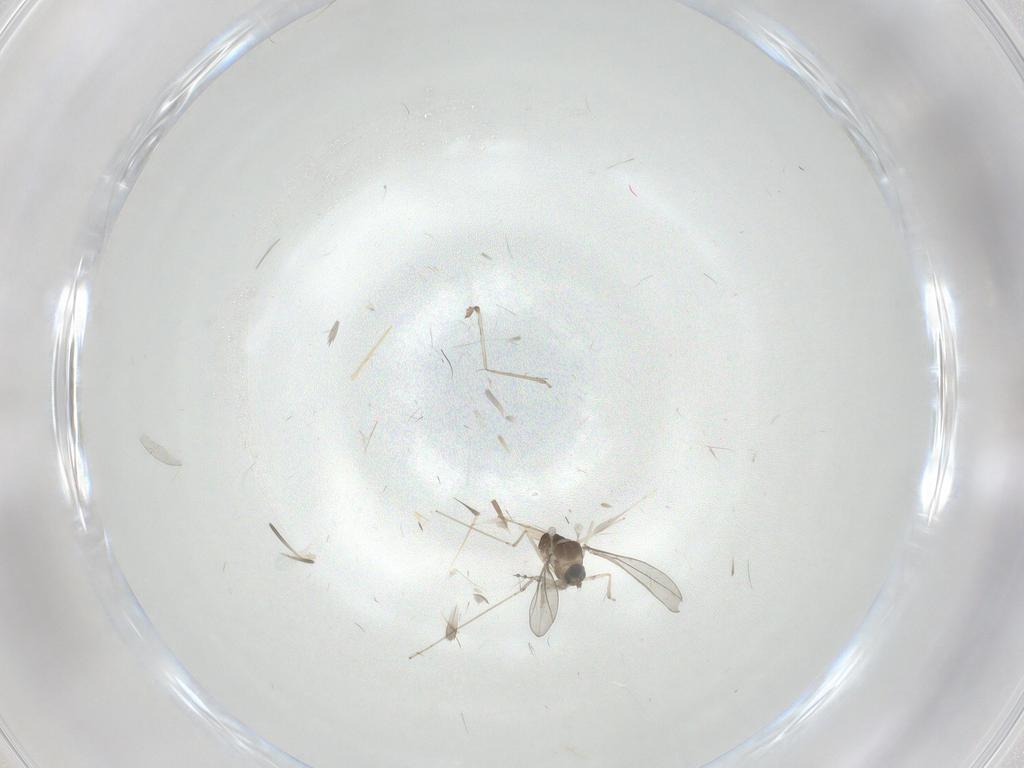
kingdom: Animalia
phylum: Arthropoda
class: Insecta
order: Diptera
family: Cecidomyiidae
